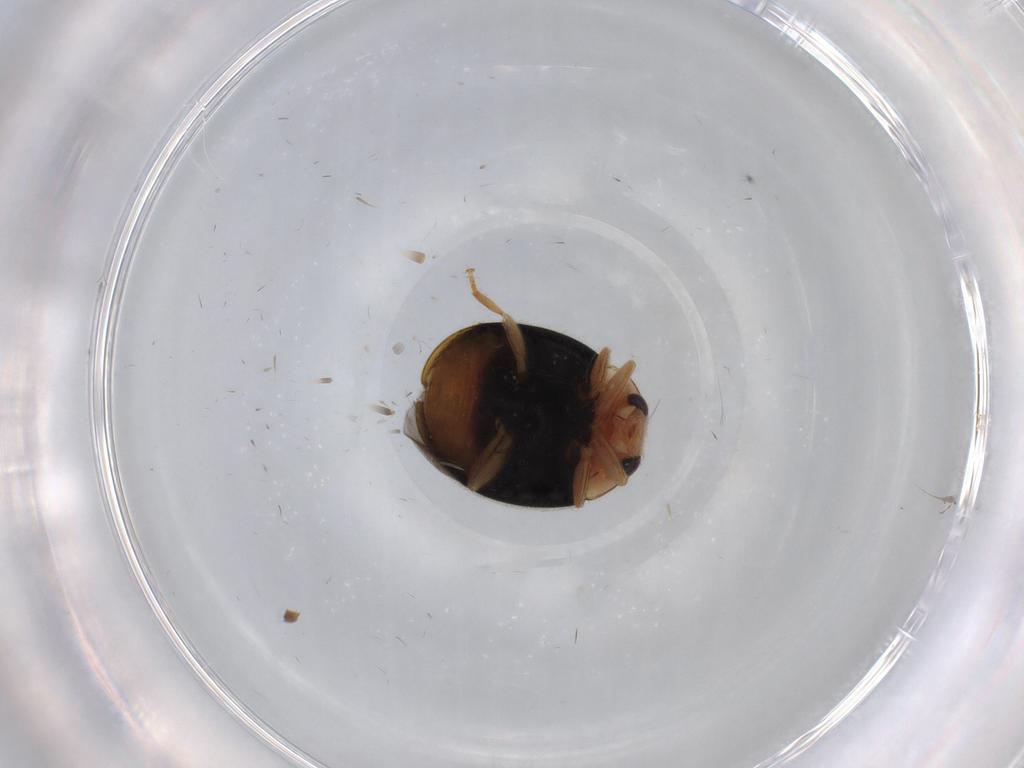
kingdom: Animalia
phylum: Arthropoda
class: Insecta
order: Coleoptera
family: Coccinellidae
